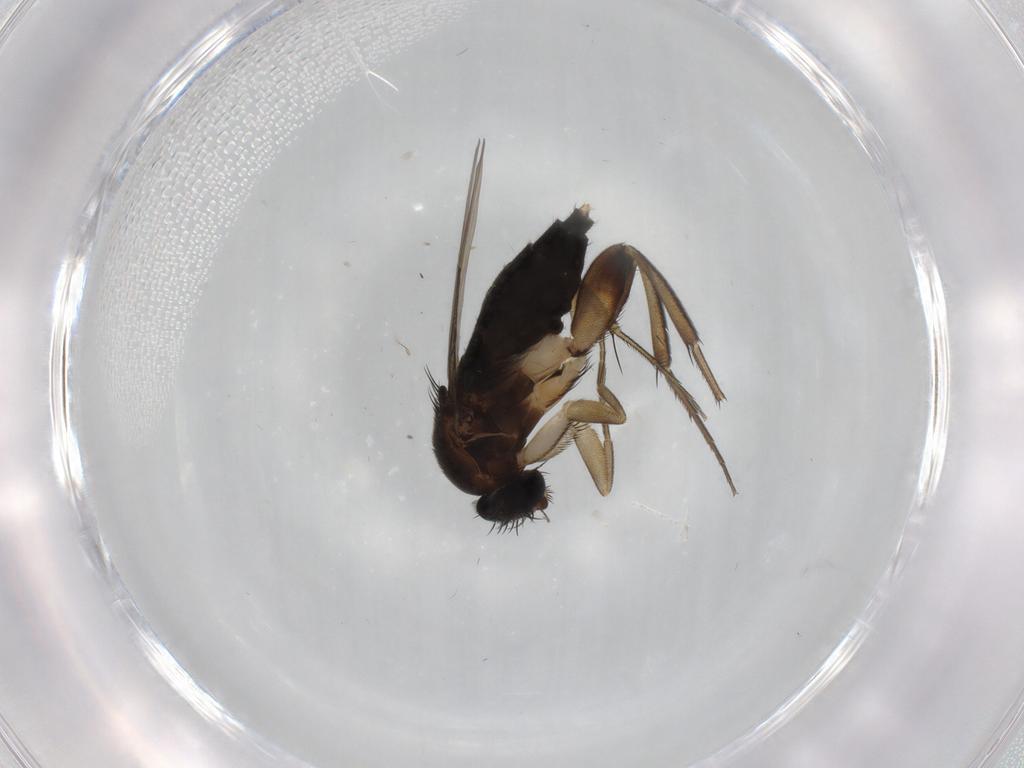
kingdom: Animalia
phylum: Arthropoda
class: Insecta
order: Diptera
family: Phoridae
